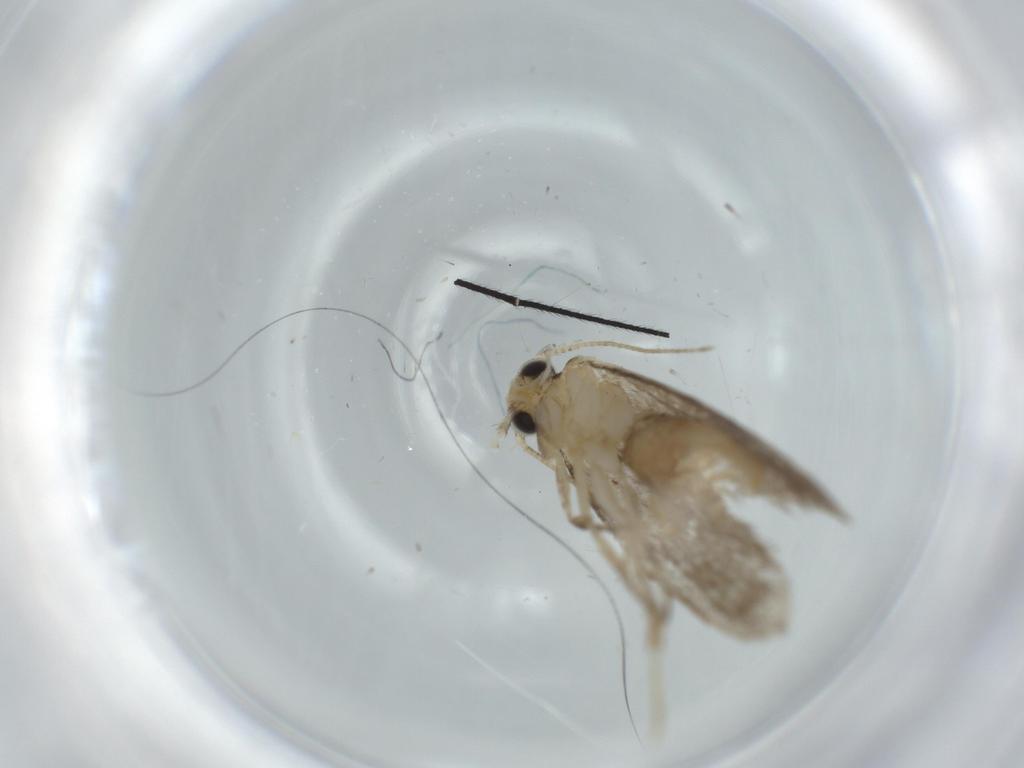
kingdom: Animalia
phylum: Arthropoda
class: Insecta
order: Lepidoptera
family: Tineidae
